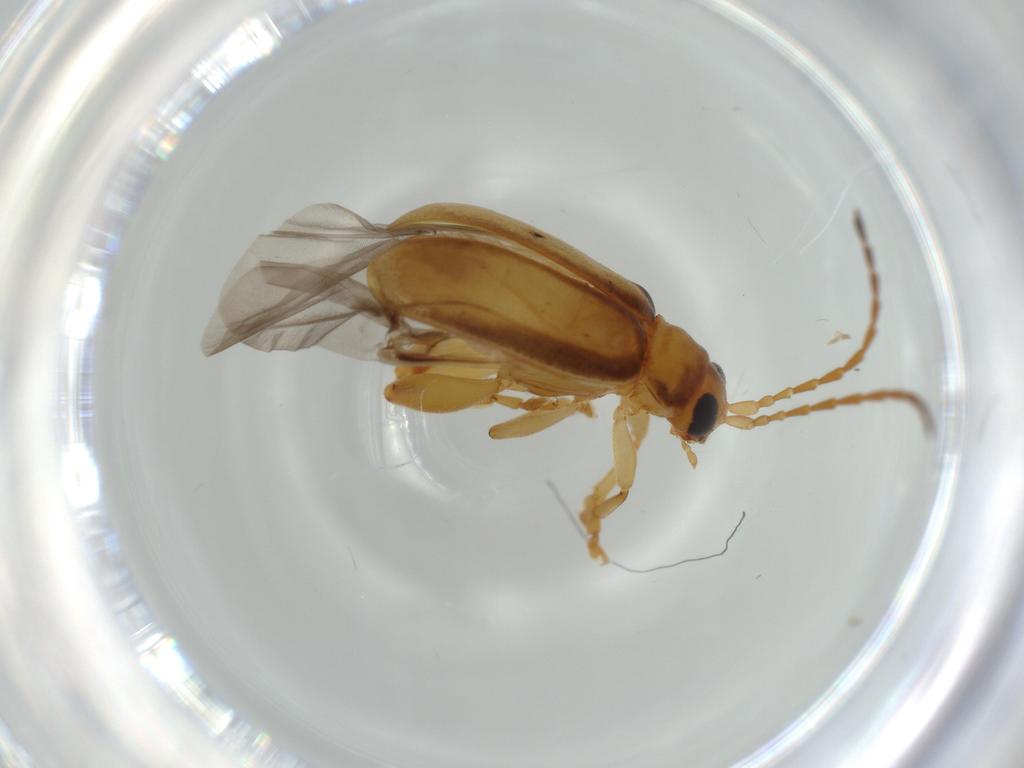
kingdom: Animalia
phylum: Arthropoda
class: Insecta
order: Coleoptera
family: Chrysomelidae
